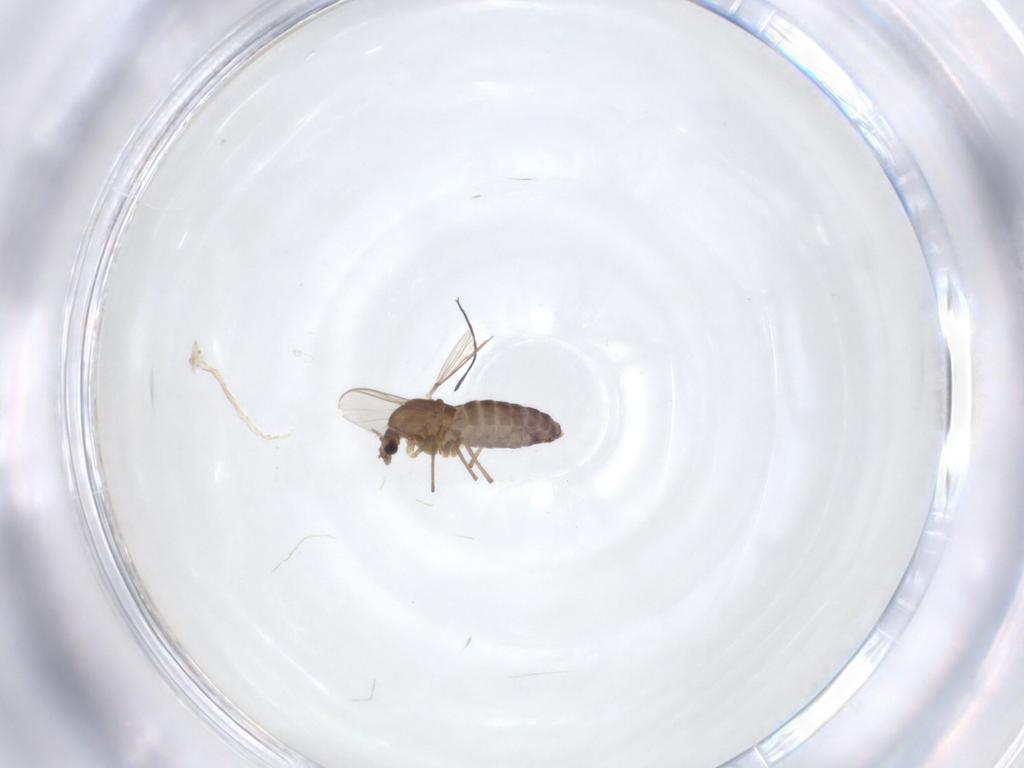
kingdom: Animalia
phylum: Arthropoda
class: Insecta
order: Diptera
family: Chironomidae
